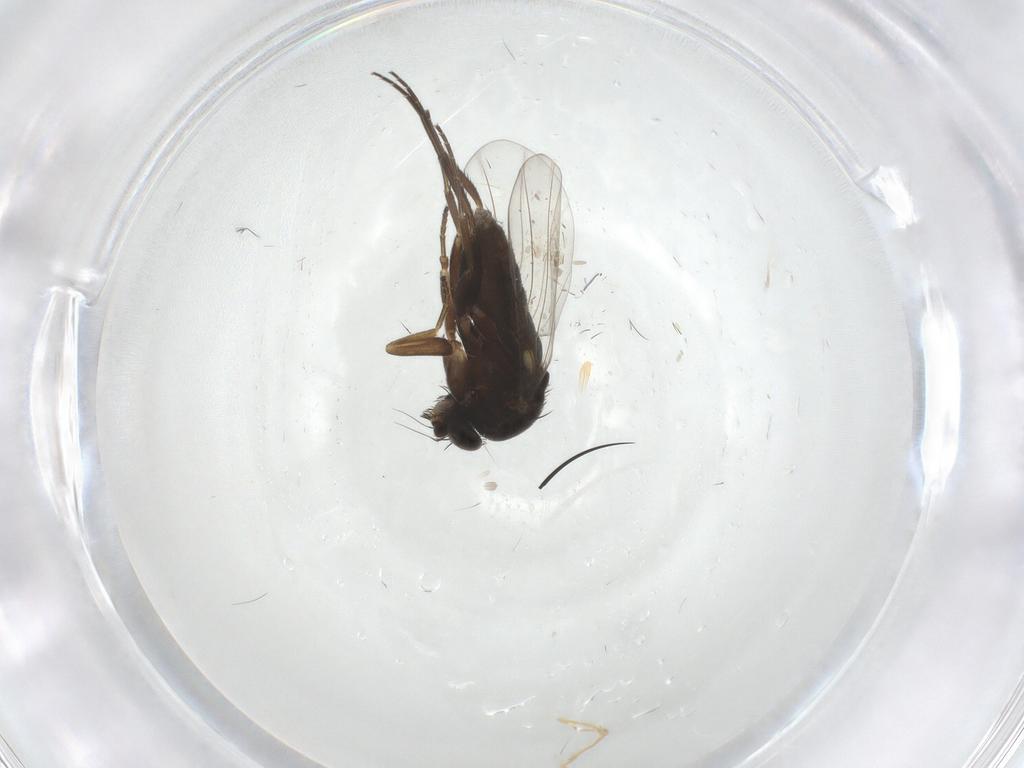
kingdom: Animalia
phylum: Arthropoda
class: Insecta
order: Diptera
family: Phoridae
